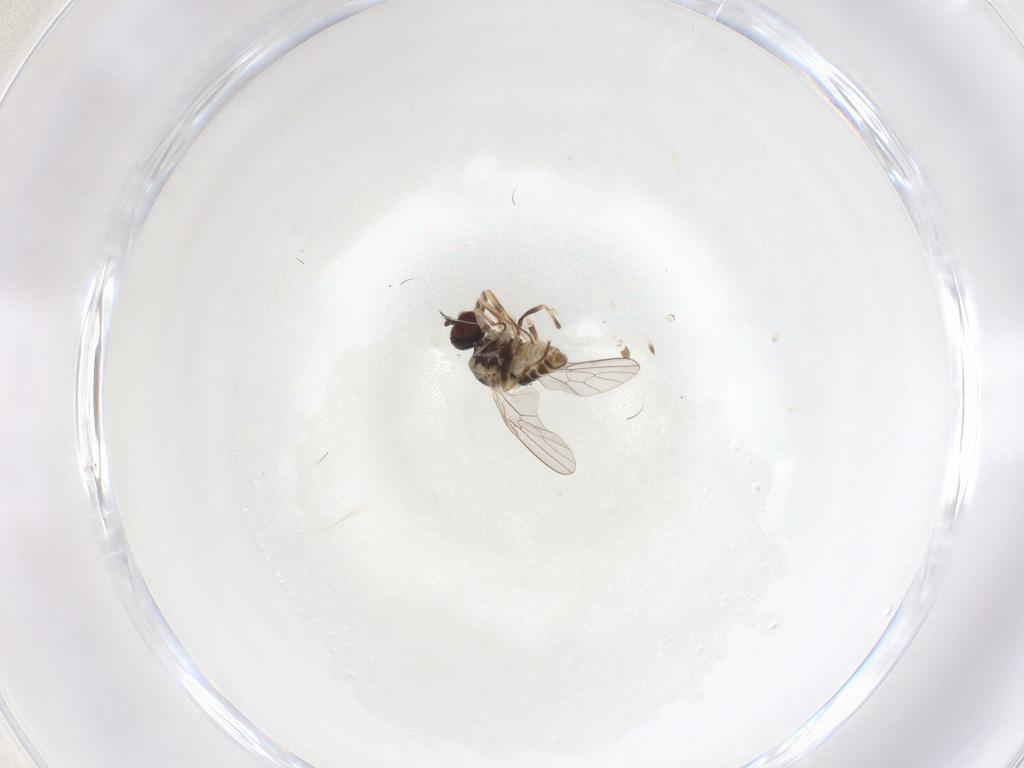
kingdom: Animalia
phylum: Arthropoda
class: Insecta
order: Diptera
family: Bombyliidae
